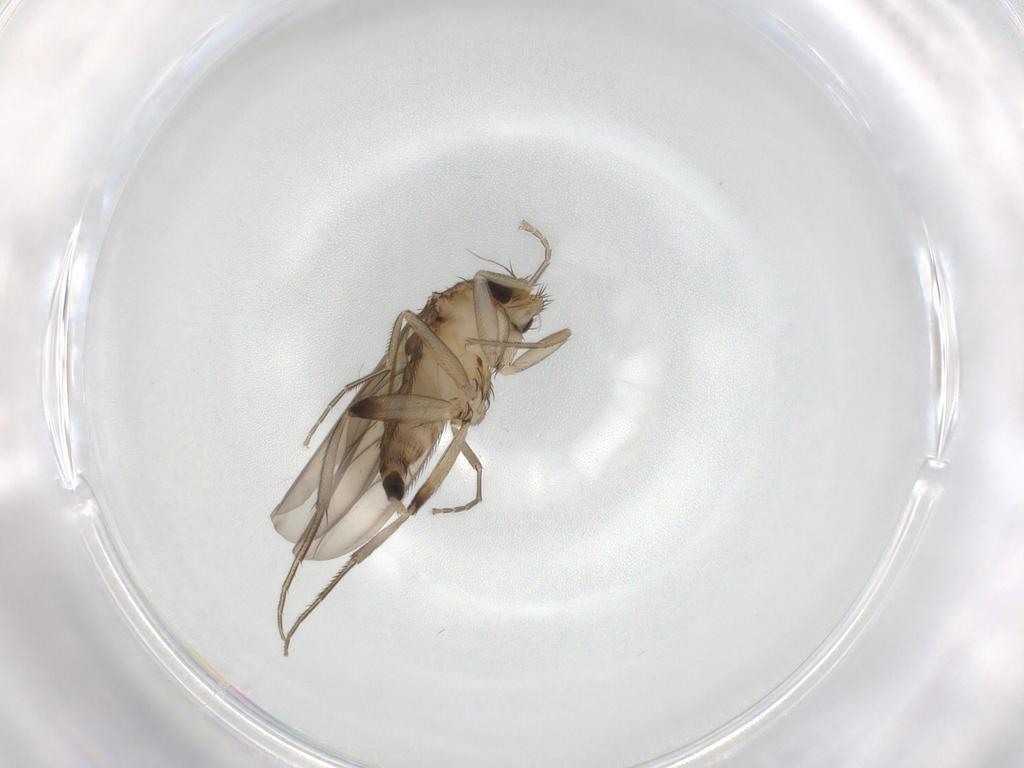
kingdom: Animalia
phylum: Arthropoda
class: Insecta
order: Diptera
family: Phoridae
